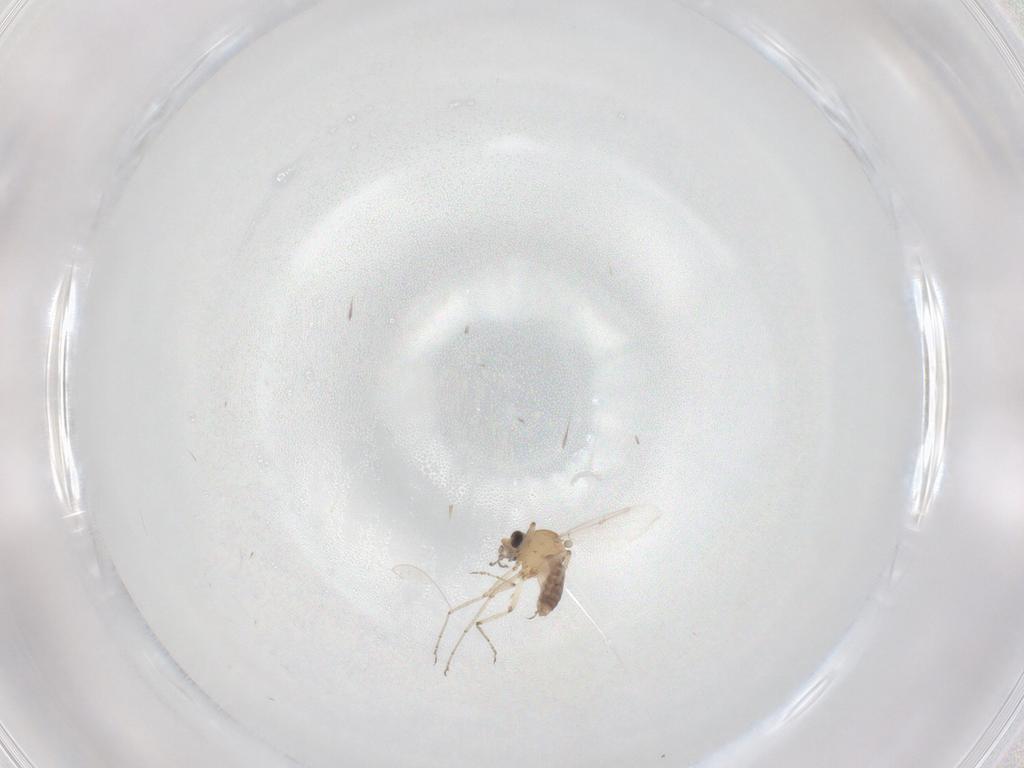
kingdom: Animalia
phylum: Arthropoda
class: Insecta
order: Diptera
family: Ceratopogonidae
